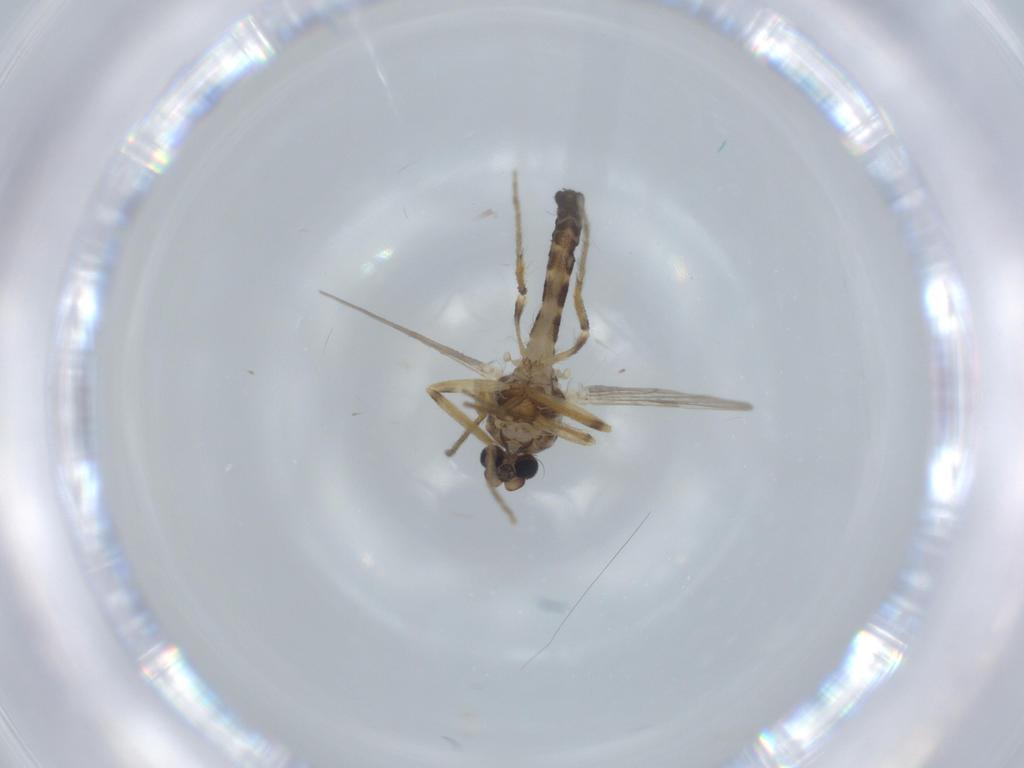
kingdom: Animalia
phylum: Arthropoda
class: Insecta
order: Diptera
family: Ceratopogonidae
